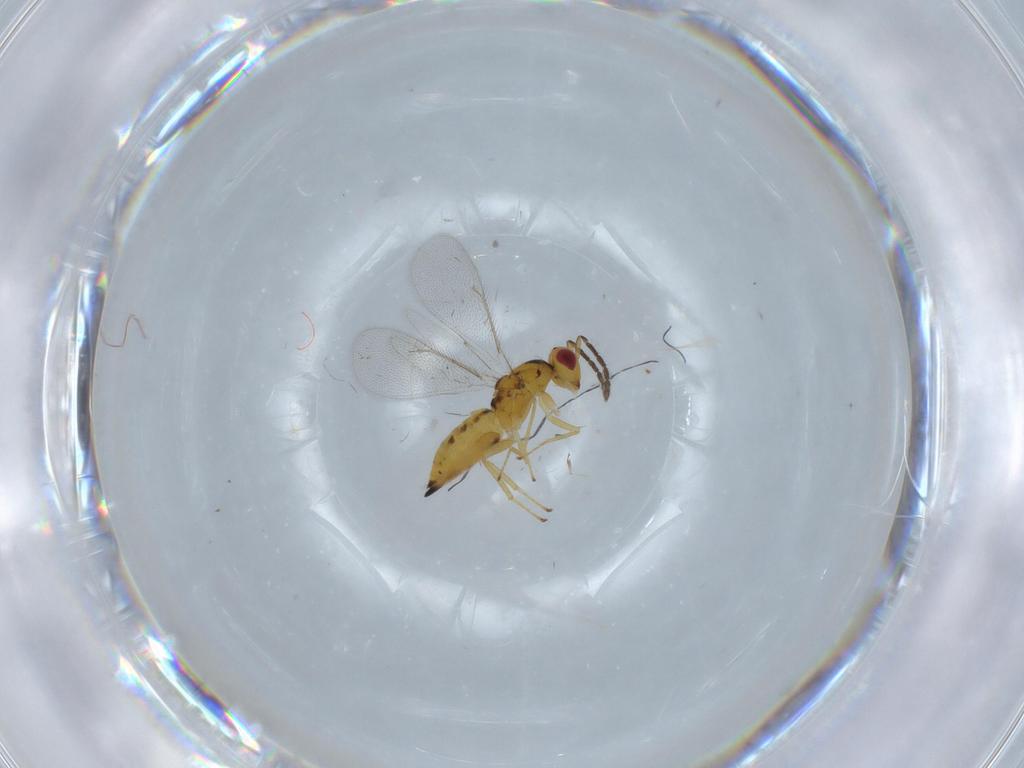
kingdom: Animalia
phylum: Arthropoda
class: Insecta
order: Hymenoptera
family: Eulophidae
